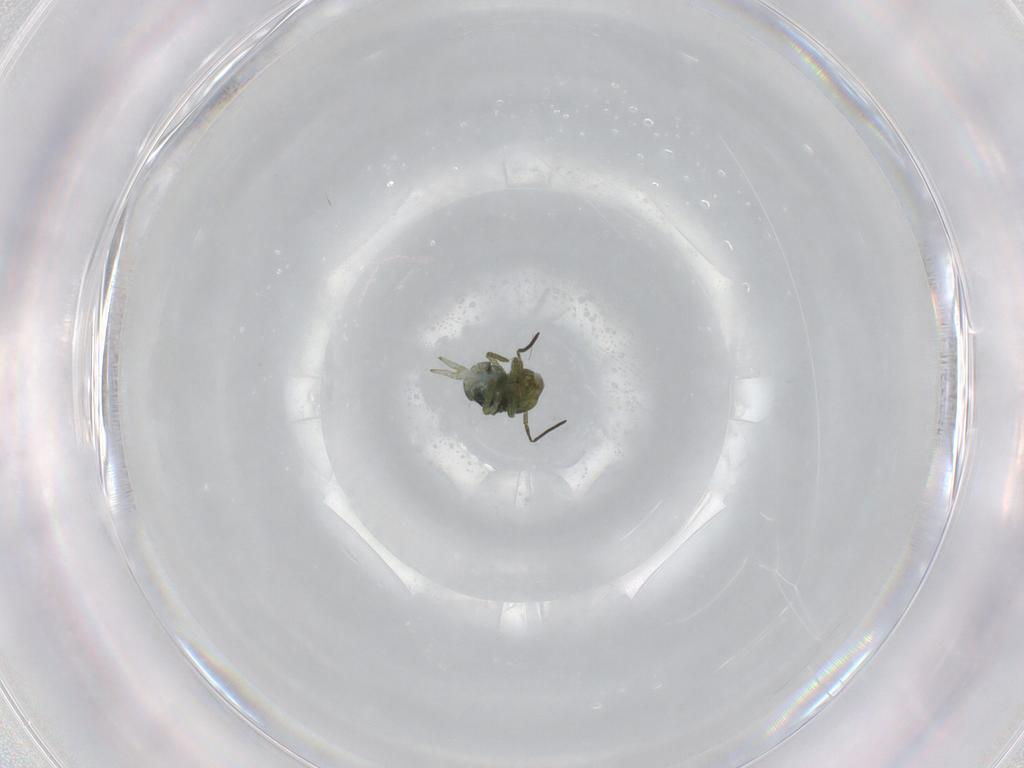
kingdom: Animalia
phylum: Arthropoda
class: Collembola
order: Symphypleona
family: Sminthuridae
